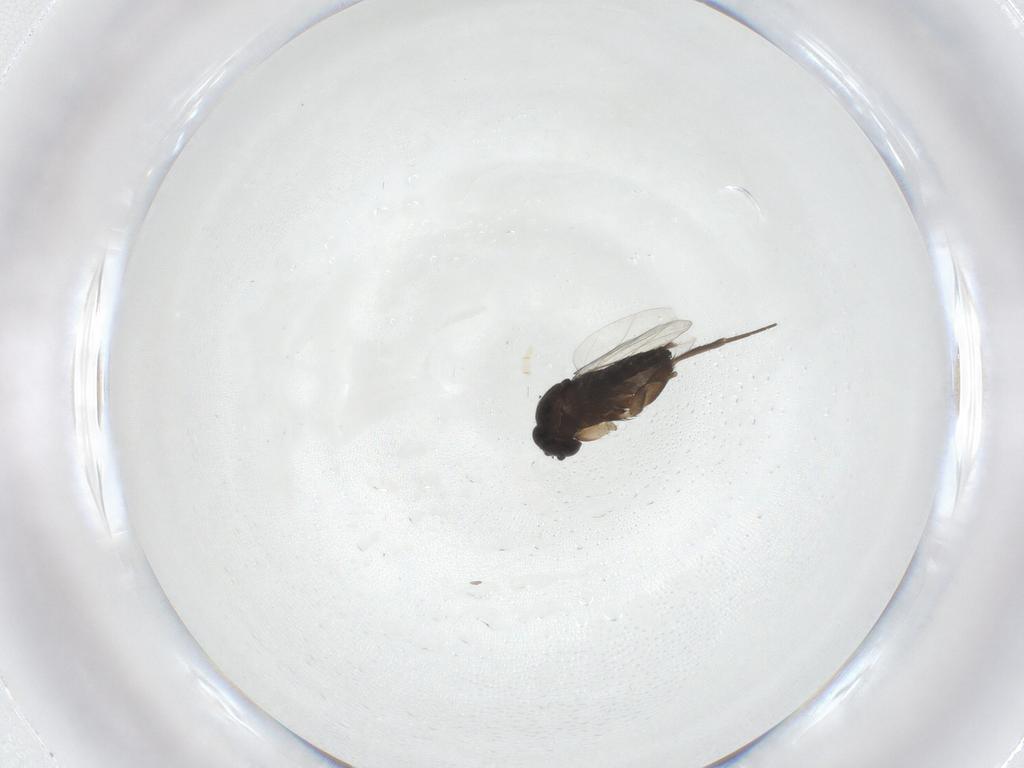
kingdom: Animalia
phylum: Arthropoda
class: Insecta
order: Diptera
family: Phoridae
